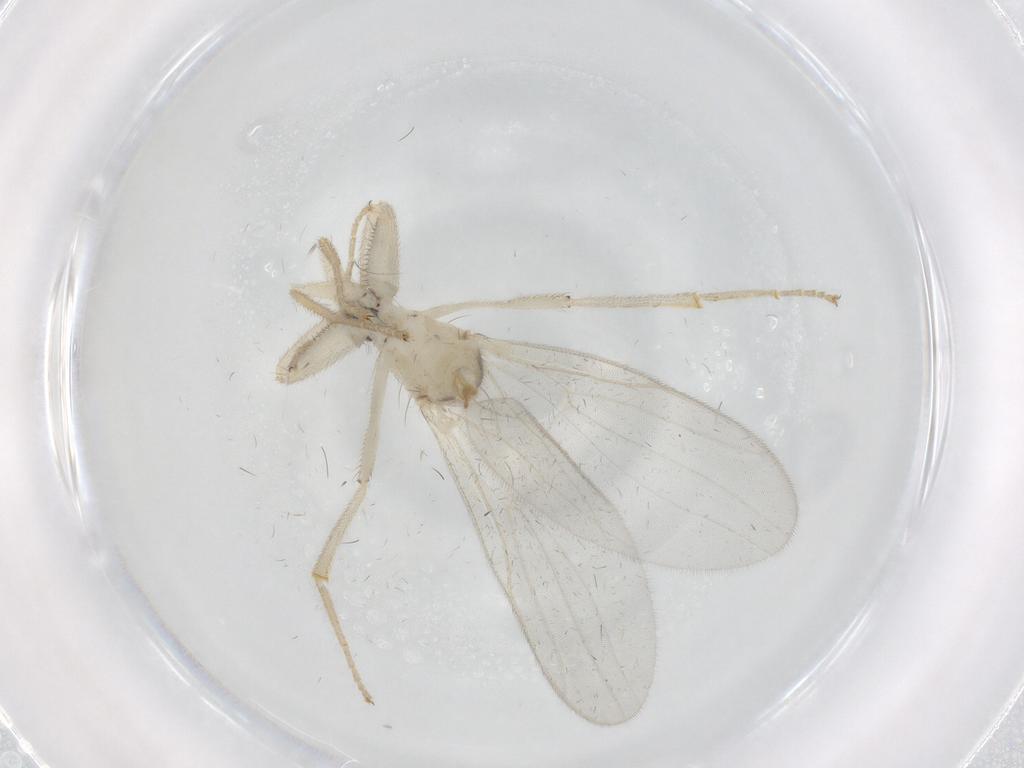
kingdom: Animalia
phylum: Arthropoda
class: Insecta
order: Diptera
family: Hybotidae
